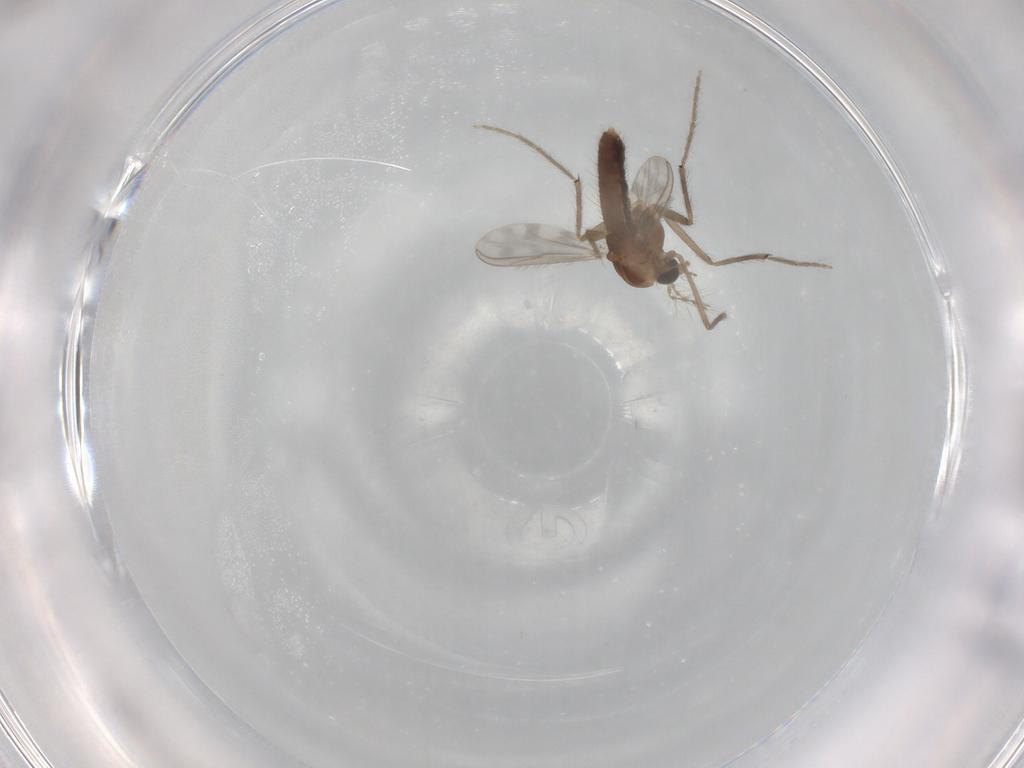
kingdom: Animalia
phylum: Arthropoda
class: Insecta
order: Diptera
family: Chironomidae
